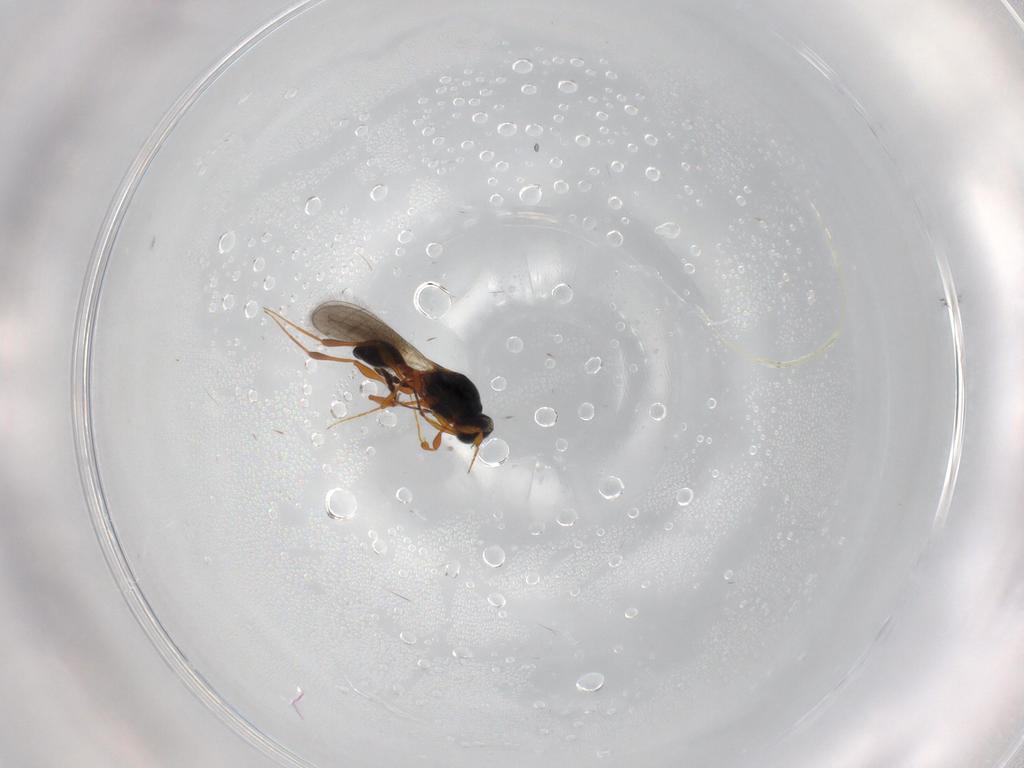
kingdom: Animalia
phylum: Arthropoda
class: Insecta
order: Hymenoptera
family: Platygastridae
